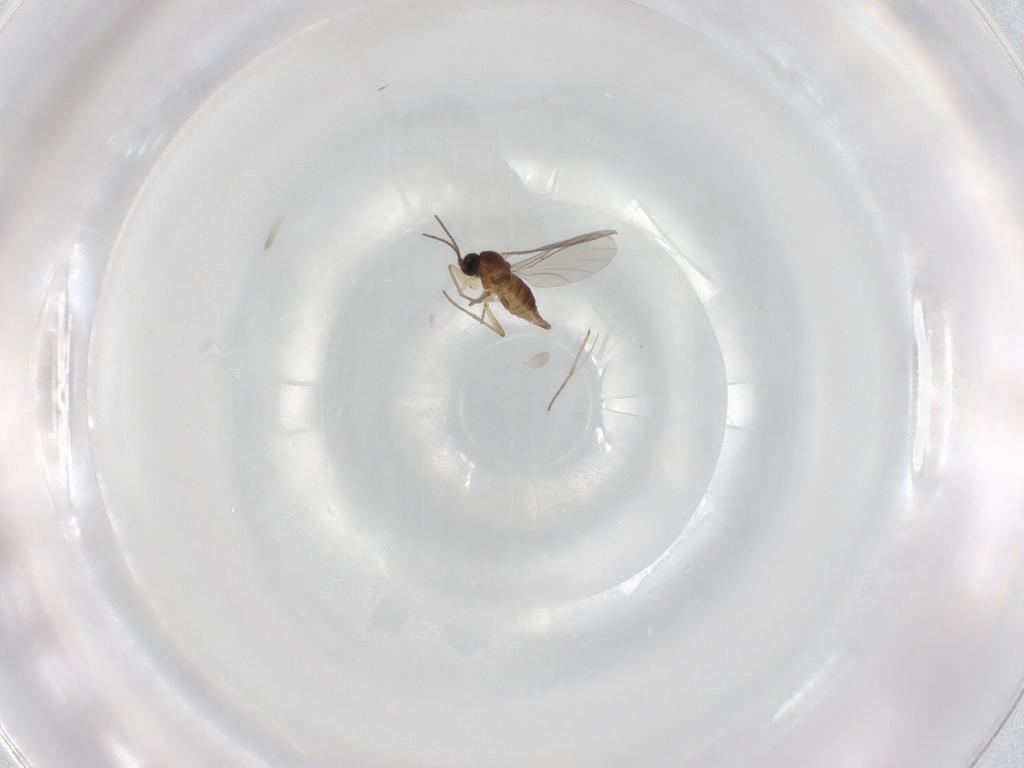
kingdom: Animalia
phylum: Arthropoda
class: Insecta
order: Diptera
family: Sciaridae
